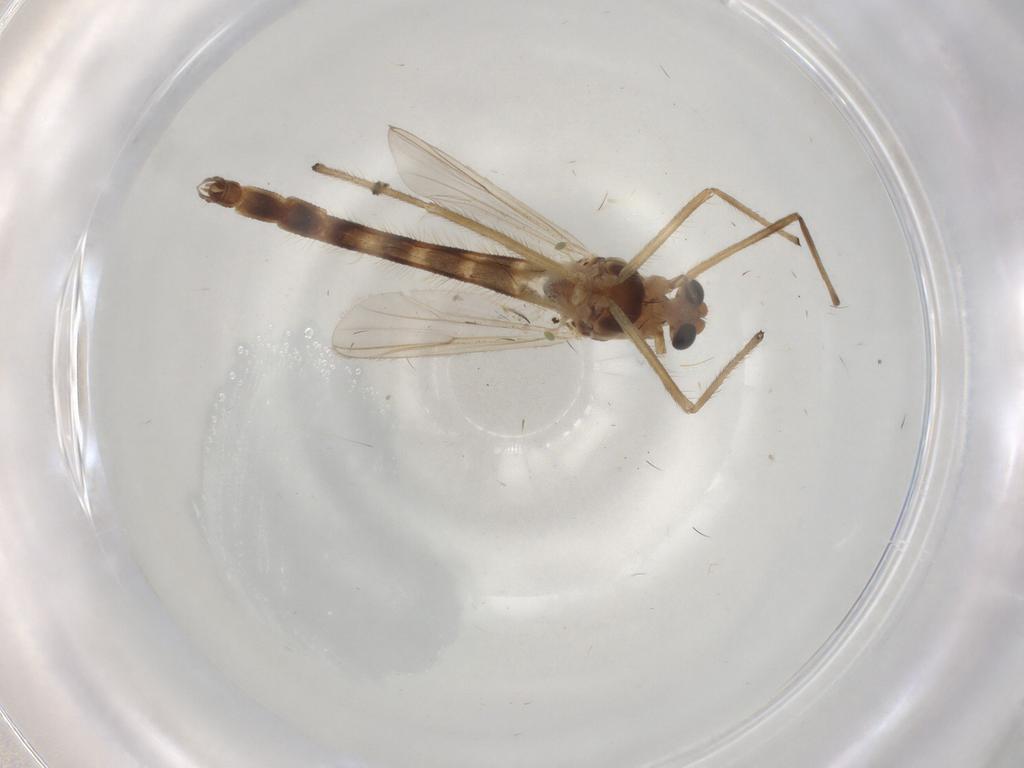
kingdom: Animalia
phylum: Arthropoda
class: Insecta
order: Diptera
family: Chironomidae
